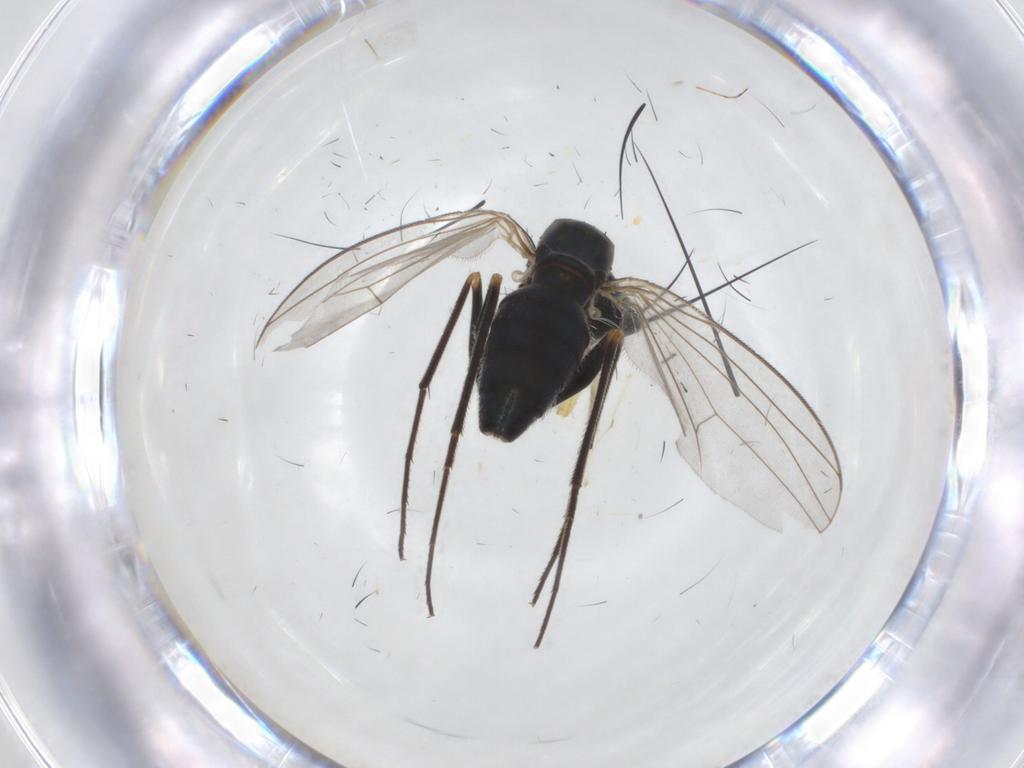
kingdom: Animalia
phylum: Arthropoda
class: Insecta
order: Diptera
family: Dolichopodidae
